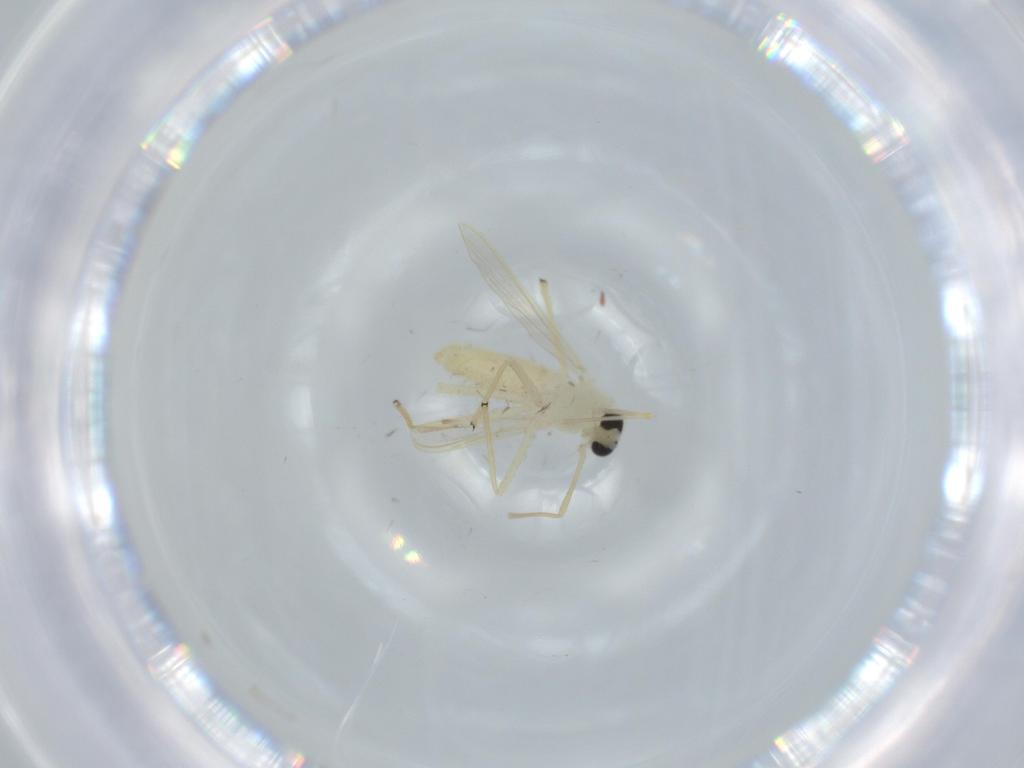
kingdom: Animalia
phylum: Arthropoda
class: Insecta
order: Diptera
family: Chironomidae
